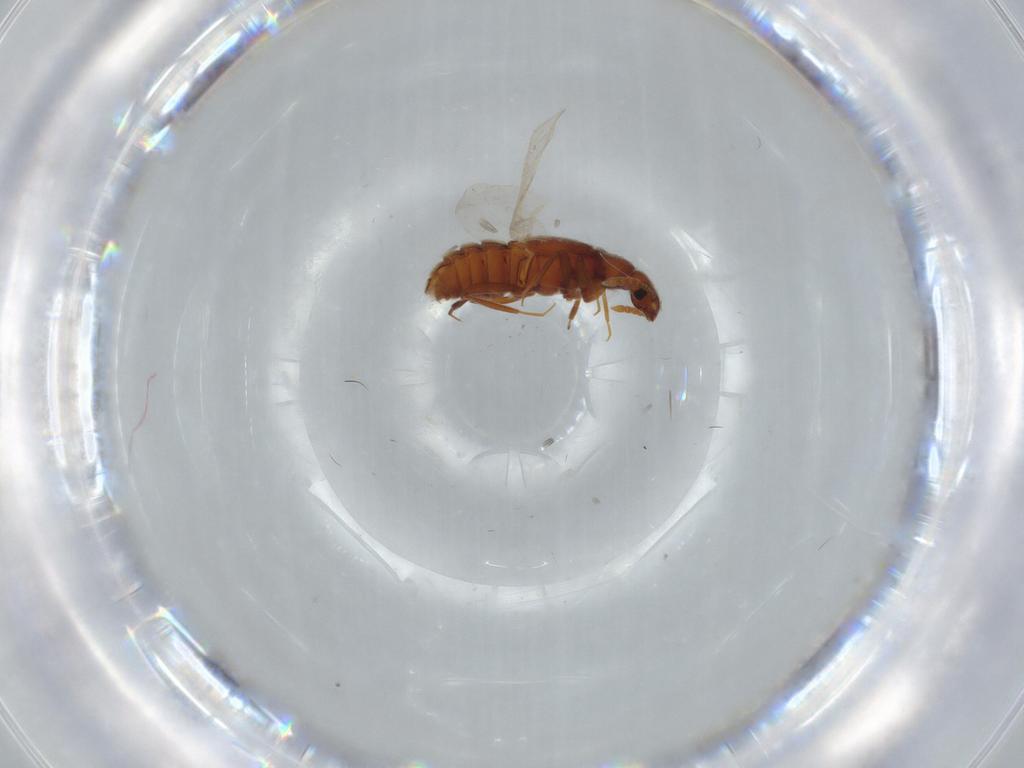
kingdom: Animalia
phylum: Arthropoda
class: Insecta
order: Coleoptera
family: Staphylinidae
